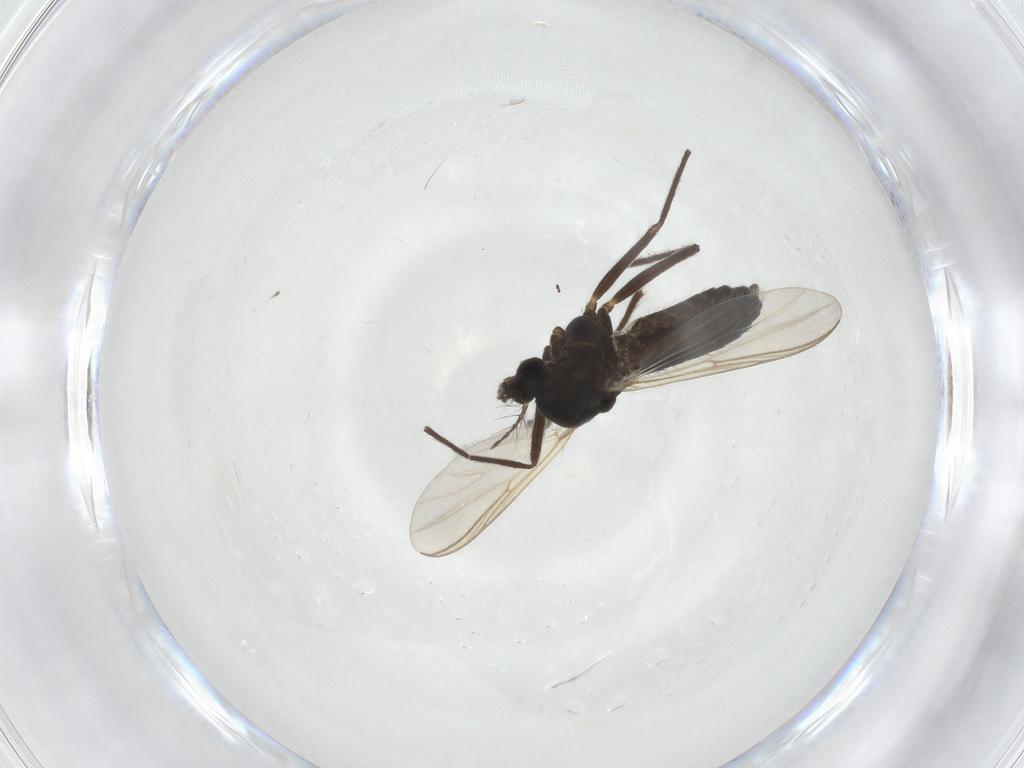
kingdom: Animalia
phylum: Arthropoda
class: Insecta
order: Diptera
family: Chironomidae
